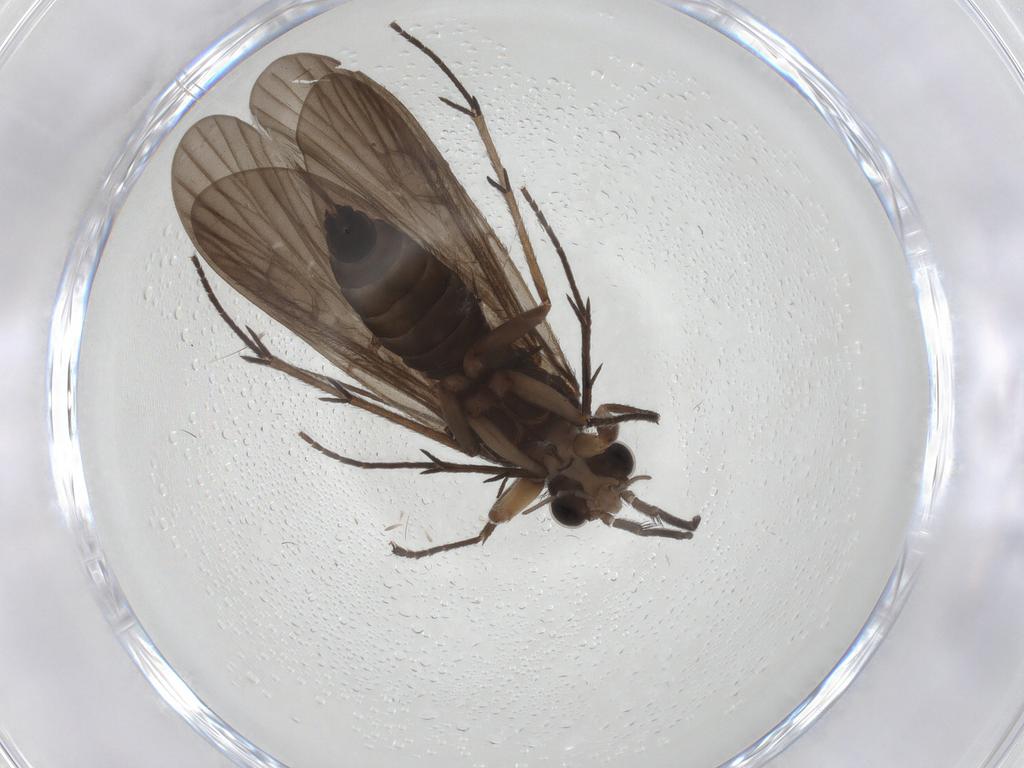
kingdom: Animalia
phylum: Arthropoda
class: Insecta
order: Trichoptera
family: Philopotamidae
